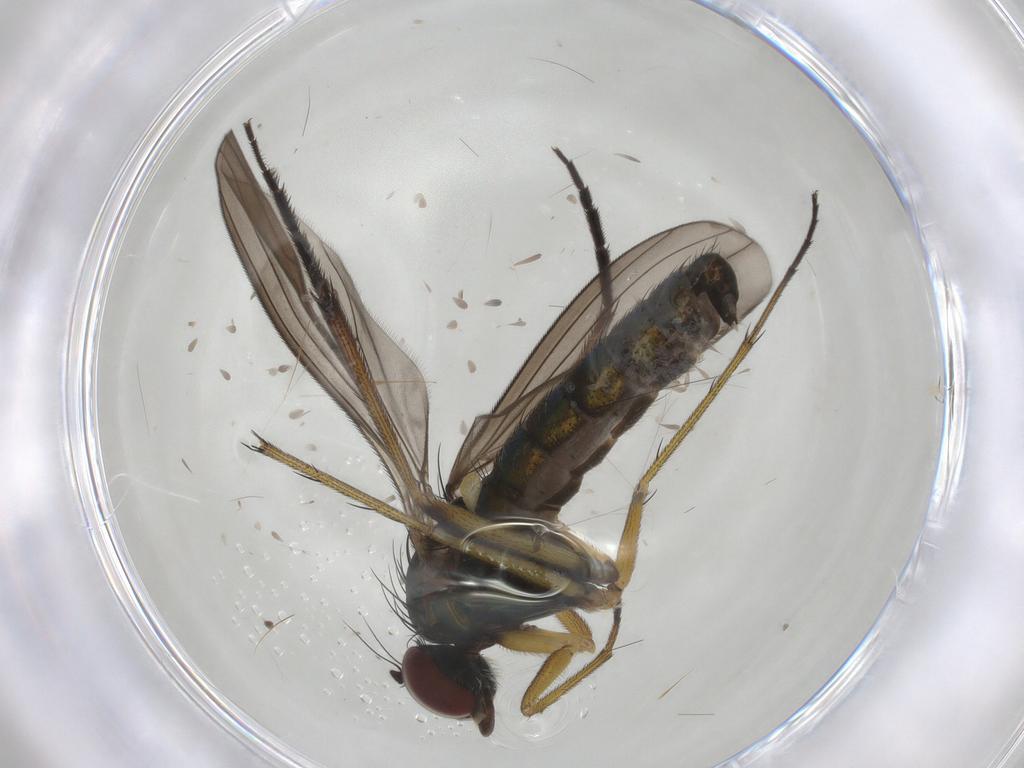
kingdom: Animalia
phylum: Arthropoda
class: Insecta
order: Diptera
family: Dolichopodidae
